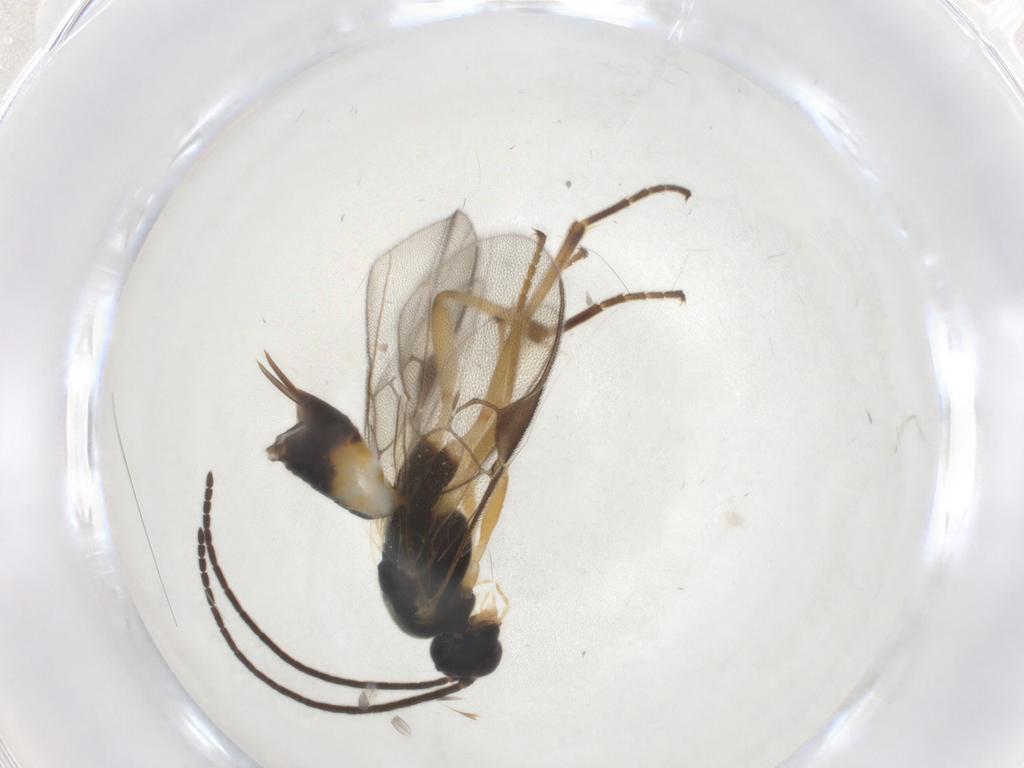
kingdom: Animalia
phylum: Arthropoda
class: Insecta
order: Hymenoptera
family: Braconidae
